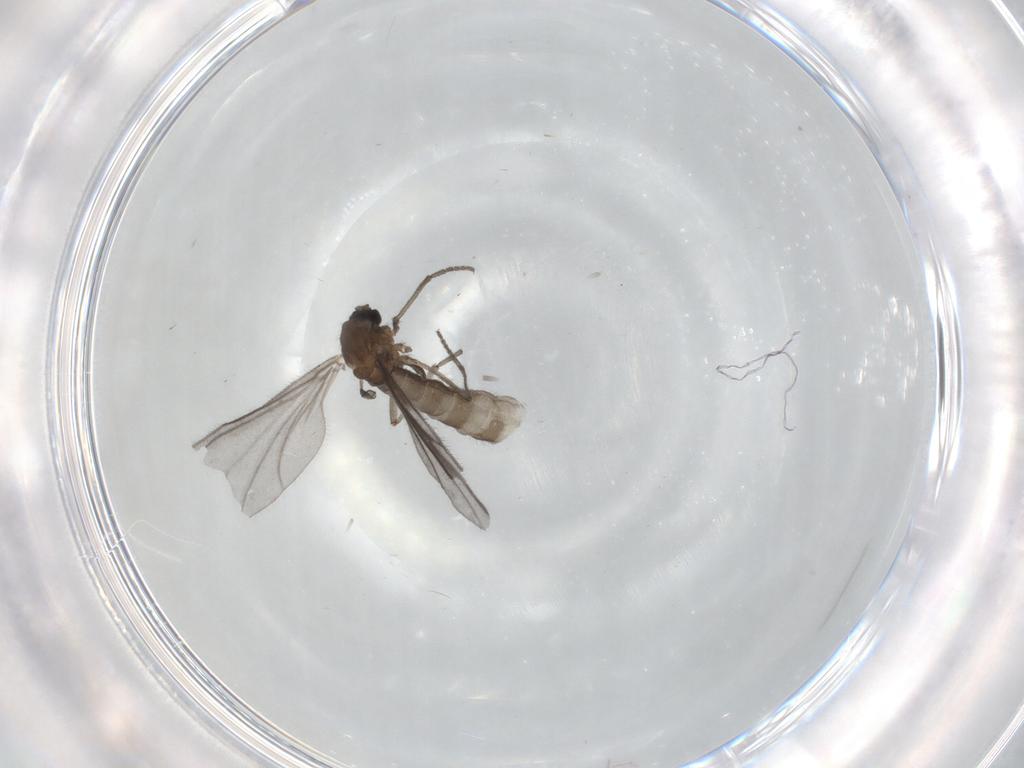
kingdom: Animalia
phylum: Arthropoda
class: Insecta
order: Diptera
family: Sciaridae
